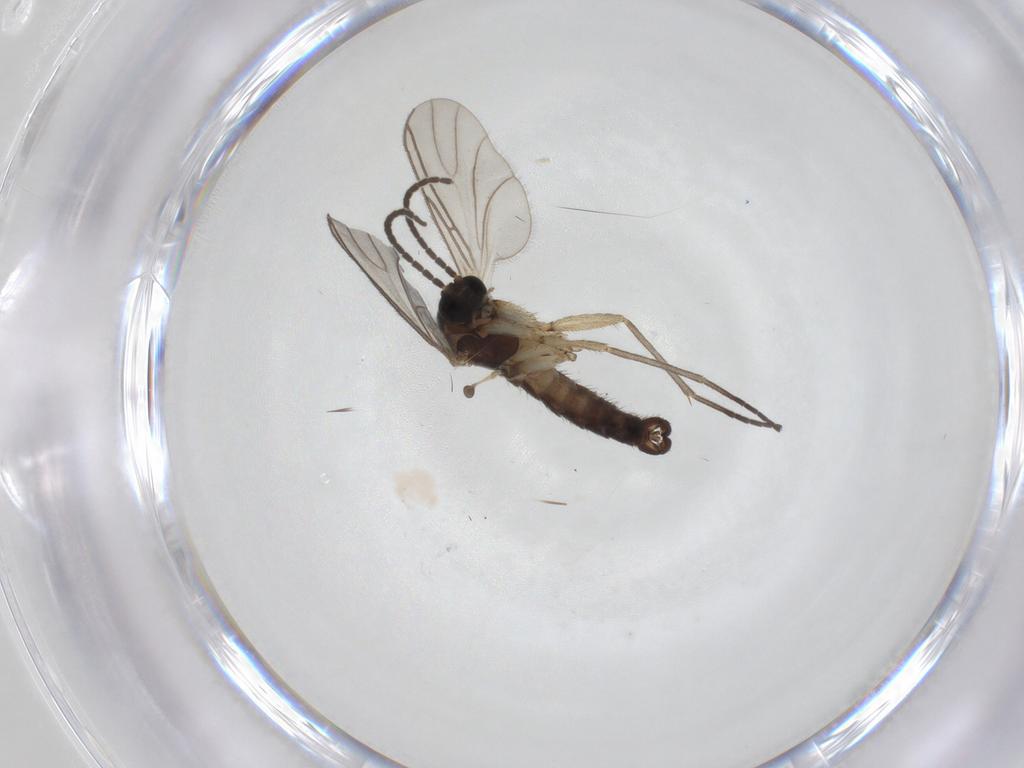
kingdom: Animalia
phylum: Arthropoda
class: Insecta
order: Diptera
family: Sciaridae
